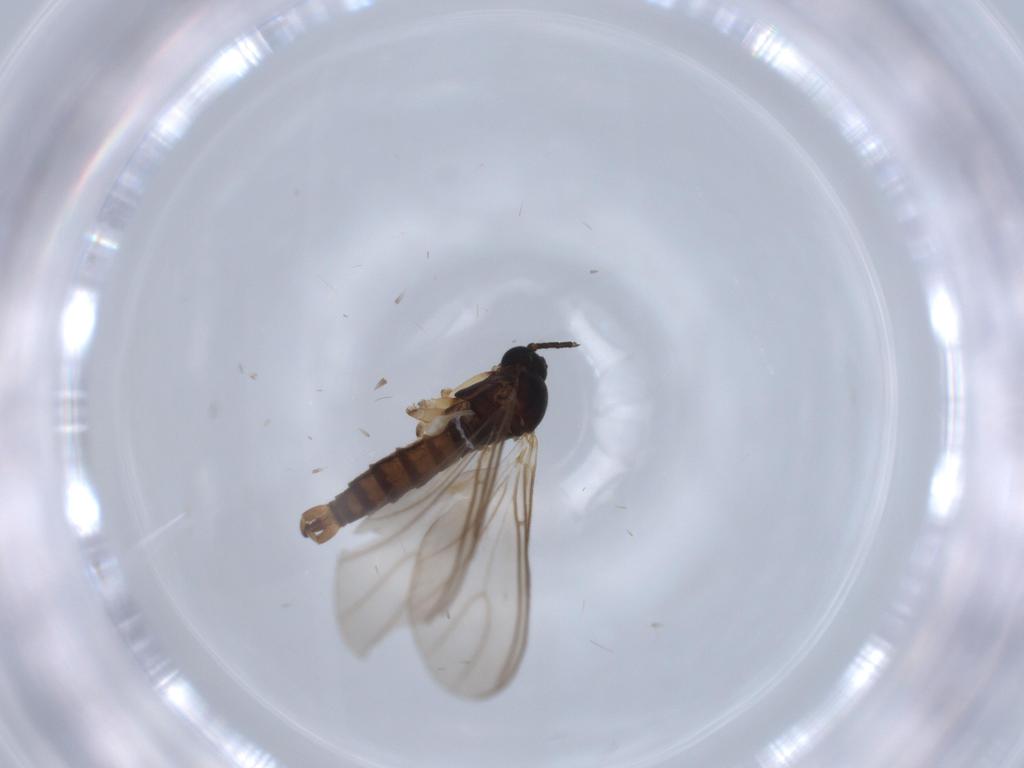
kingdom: Animalia
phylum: Arthropoda
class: Insecta
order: Diptera
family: Sciaridae
